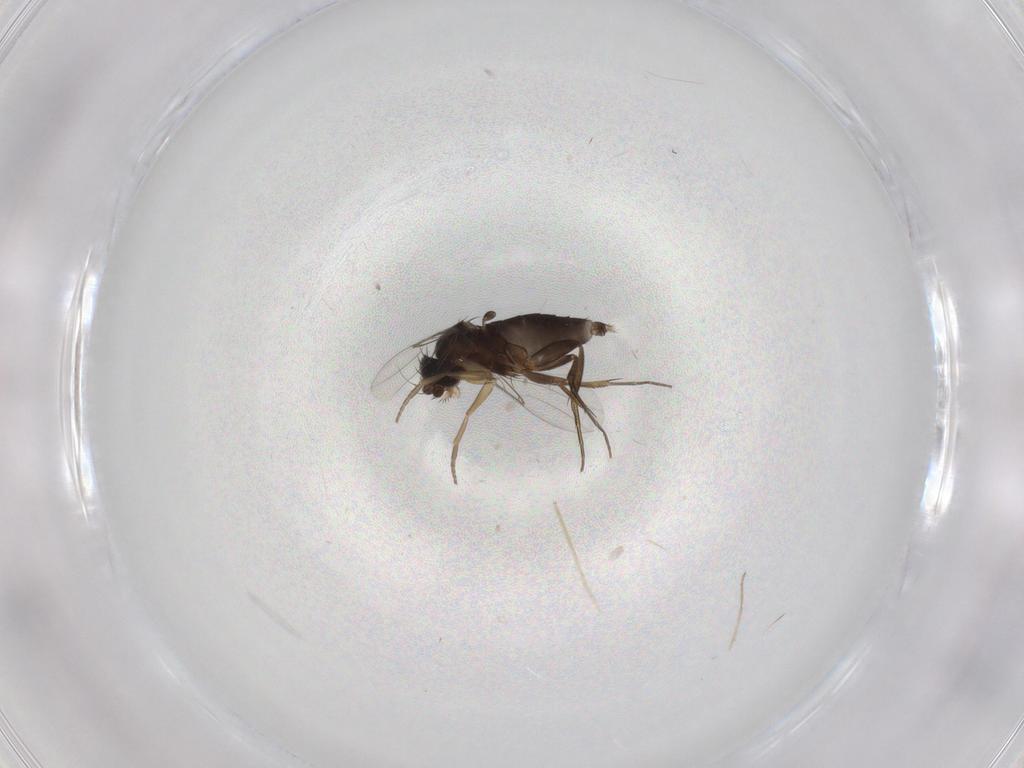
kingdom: Animalia
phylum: Arthropoda
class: Insecta
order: Diptera
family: Phoridae
